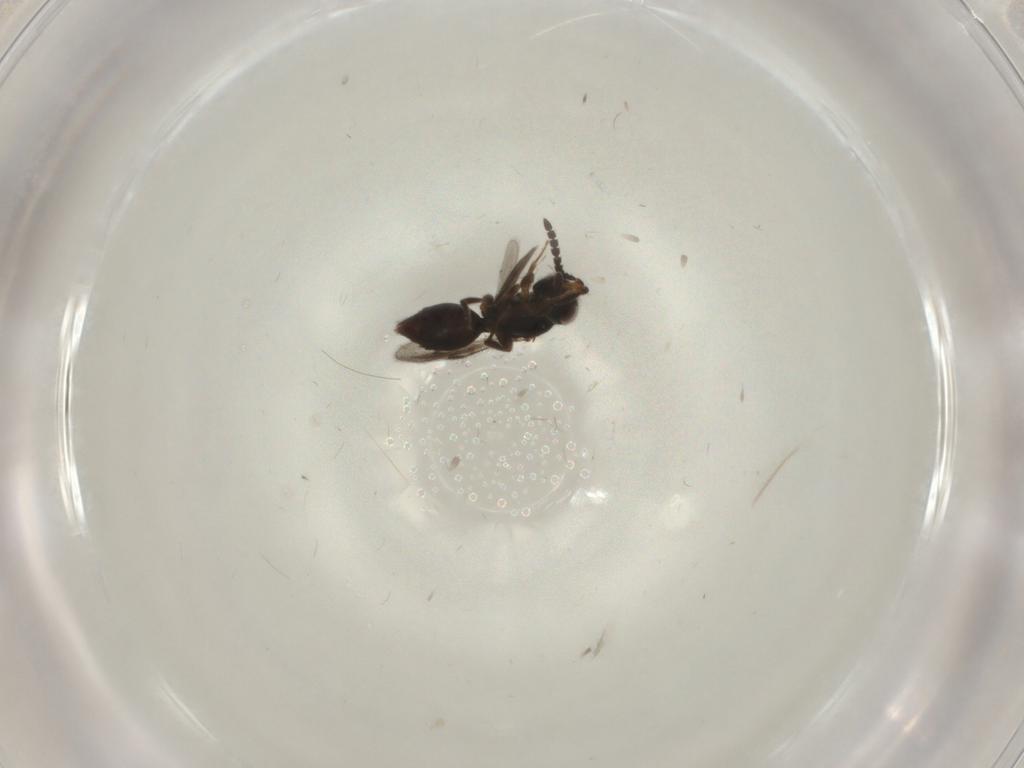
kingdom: Animalia
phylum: Arthropoda
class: Insecta
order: Hymenoptera
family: Megaspilidae
